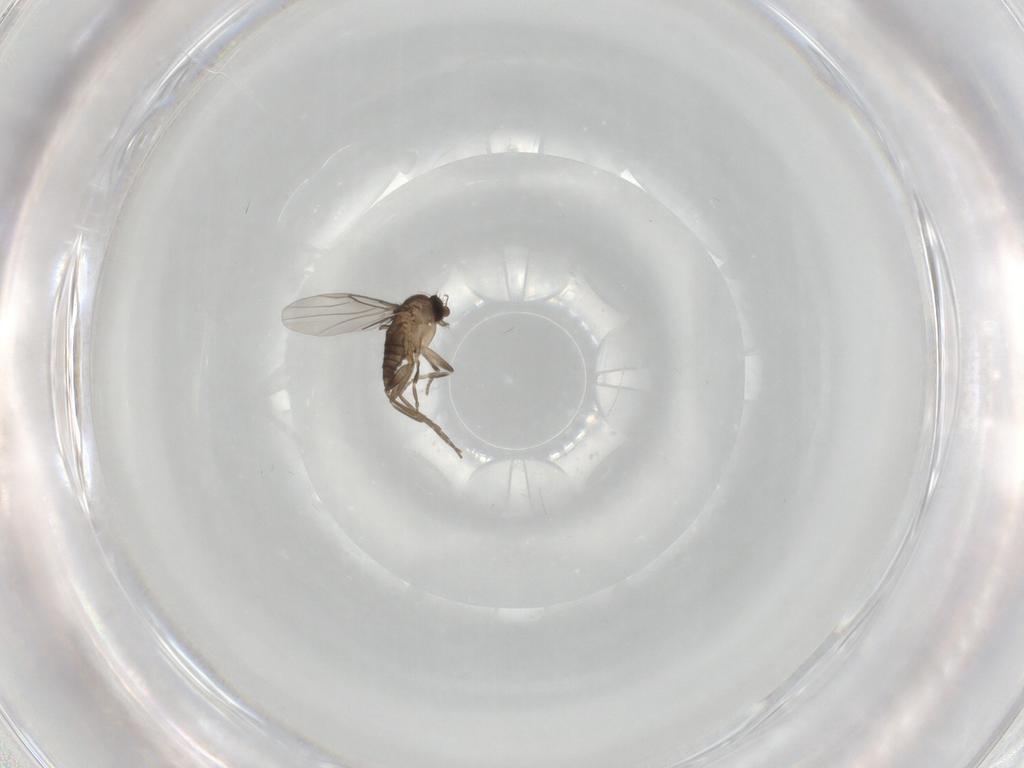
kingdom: Animalia
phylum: Arthropoda
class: Insecta
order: Diptera
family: Phoridae
